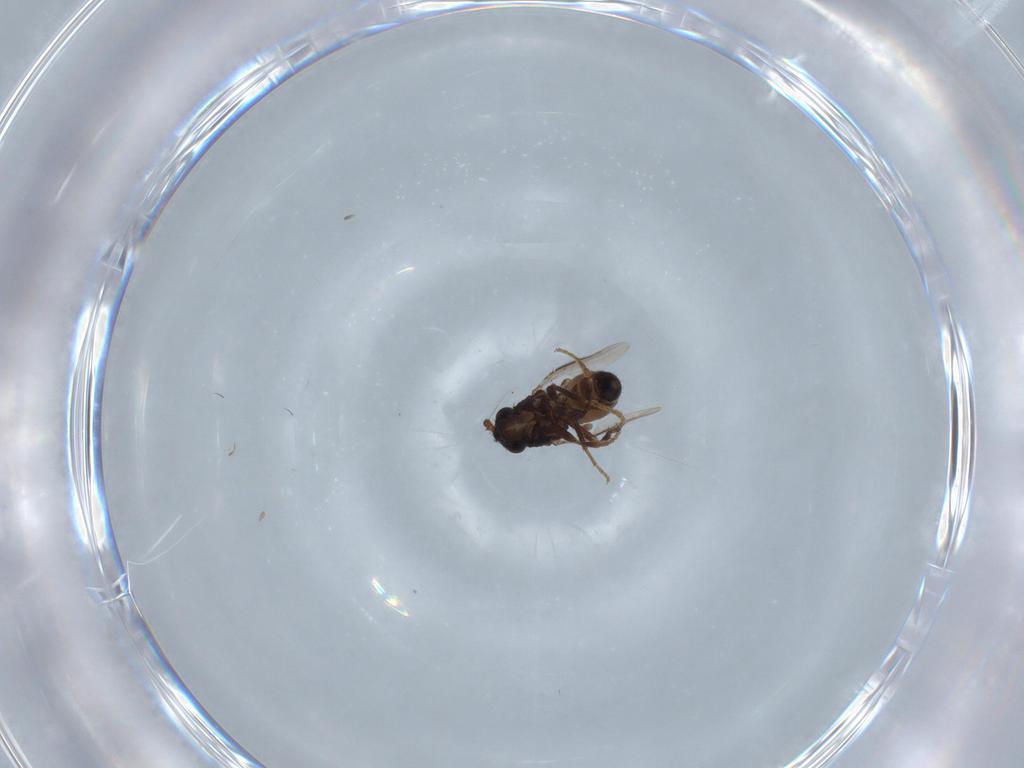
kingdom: Animalia
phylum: Arthropoda
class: Insecta
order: Diptera
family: Sphaeroceridae
